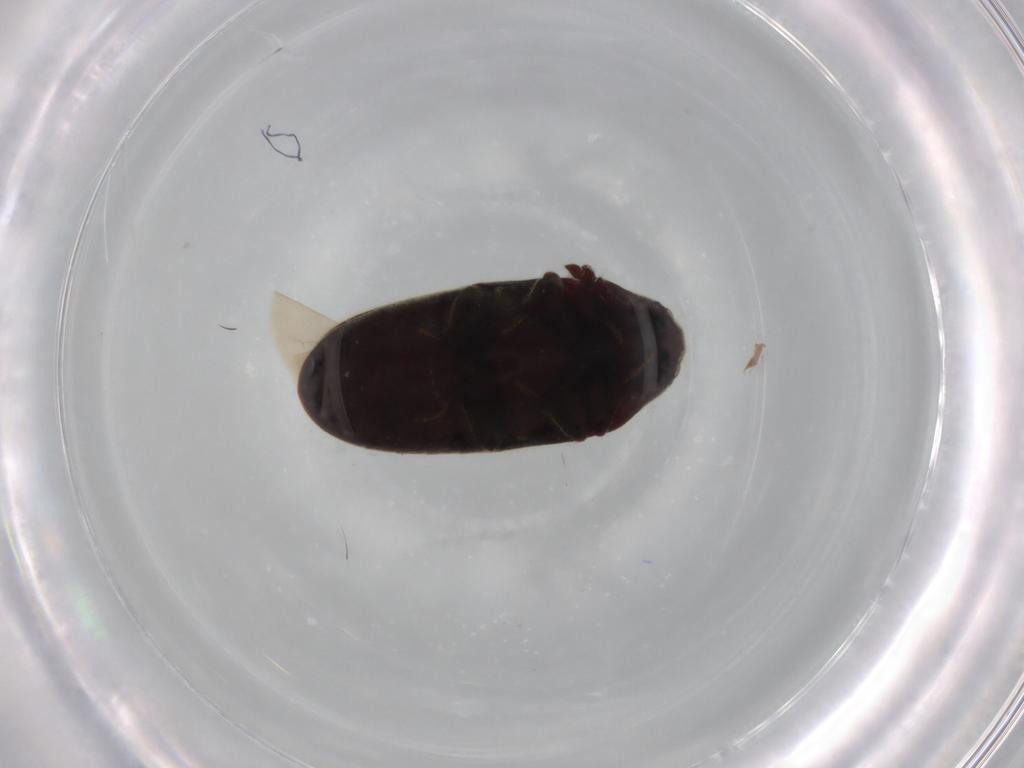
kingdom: Animalia
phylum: Arthropoda
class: Insecta
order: Coleoptera
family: Throscidae
